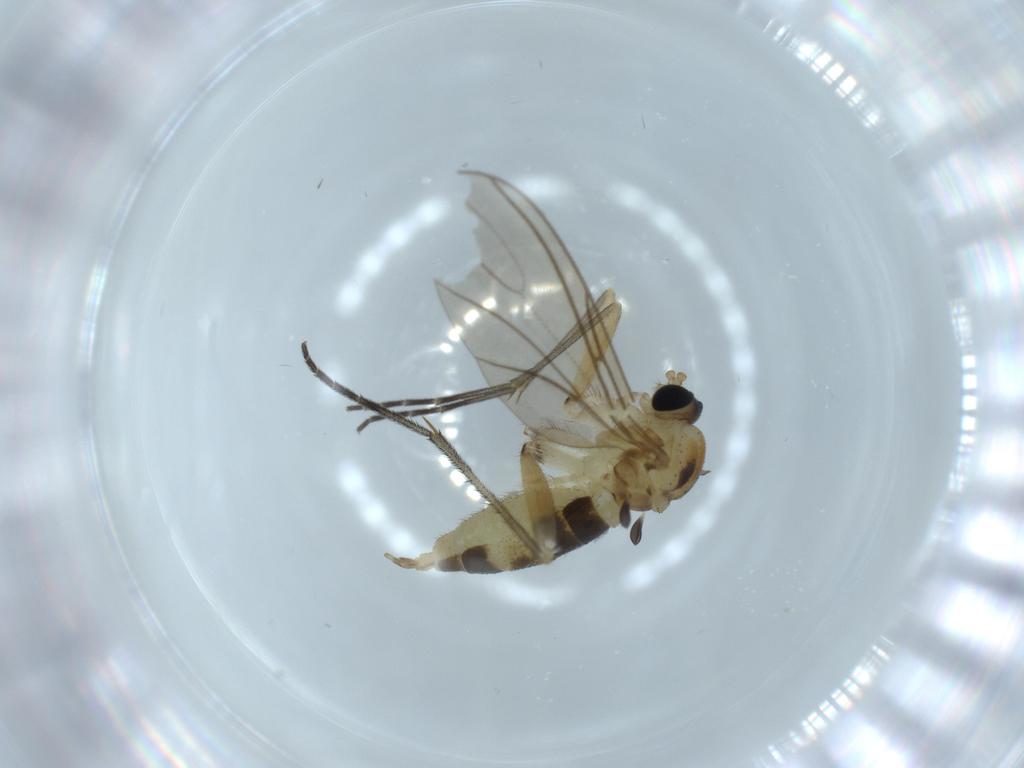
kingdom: Animalia
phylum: Arthropoda
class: Insecta
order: Diptera
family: Sciaridae
